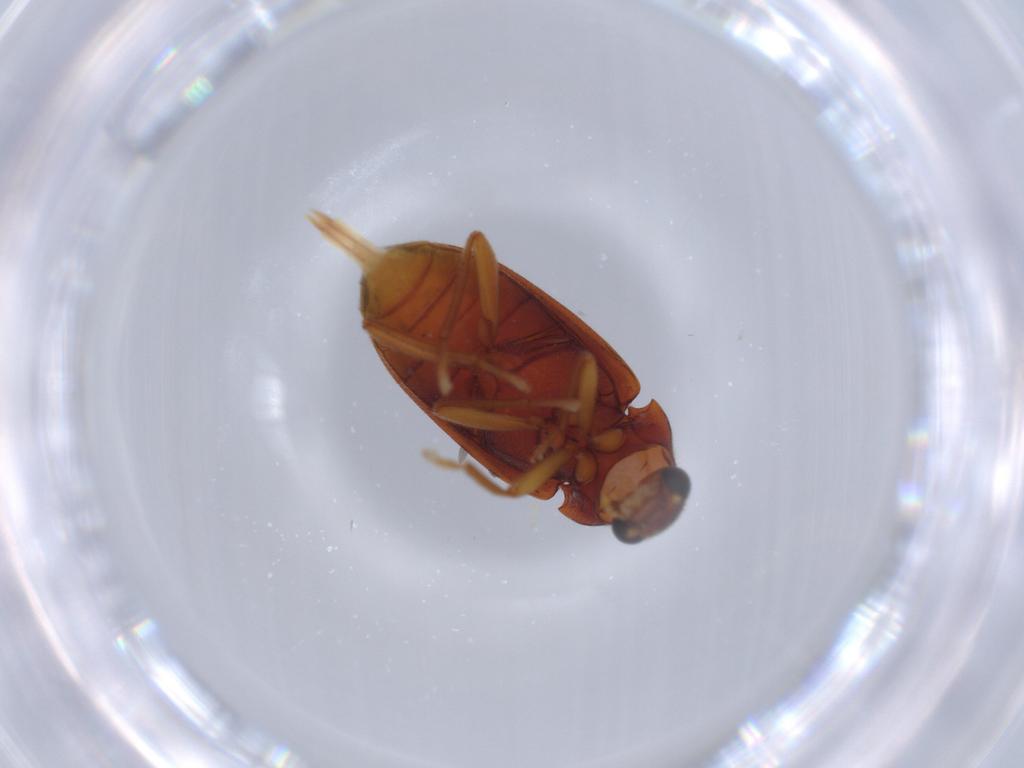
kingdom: Animalia
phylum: Arthropoda
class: Insecta
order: Coleoptera
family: Ptilodactylidae
